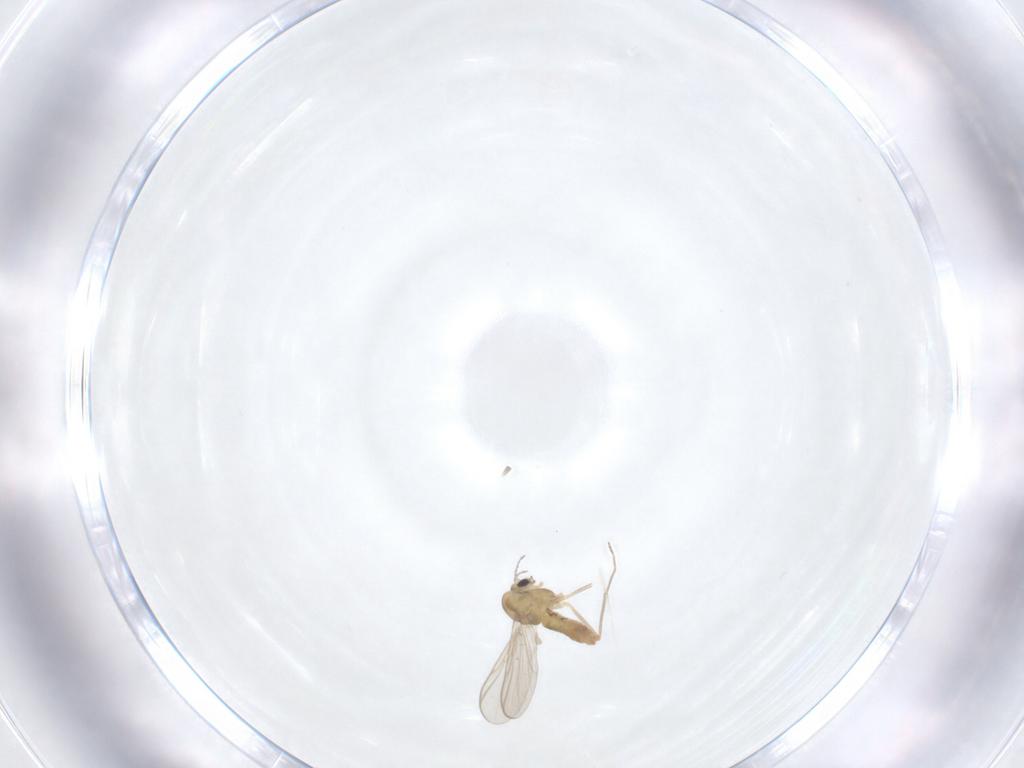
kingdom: Animalia
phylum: Arthropoda
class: Insecta
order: Diptera
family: Chironomidae
